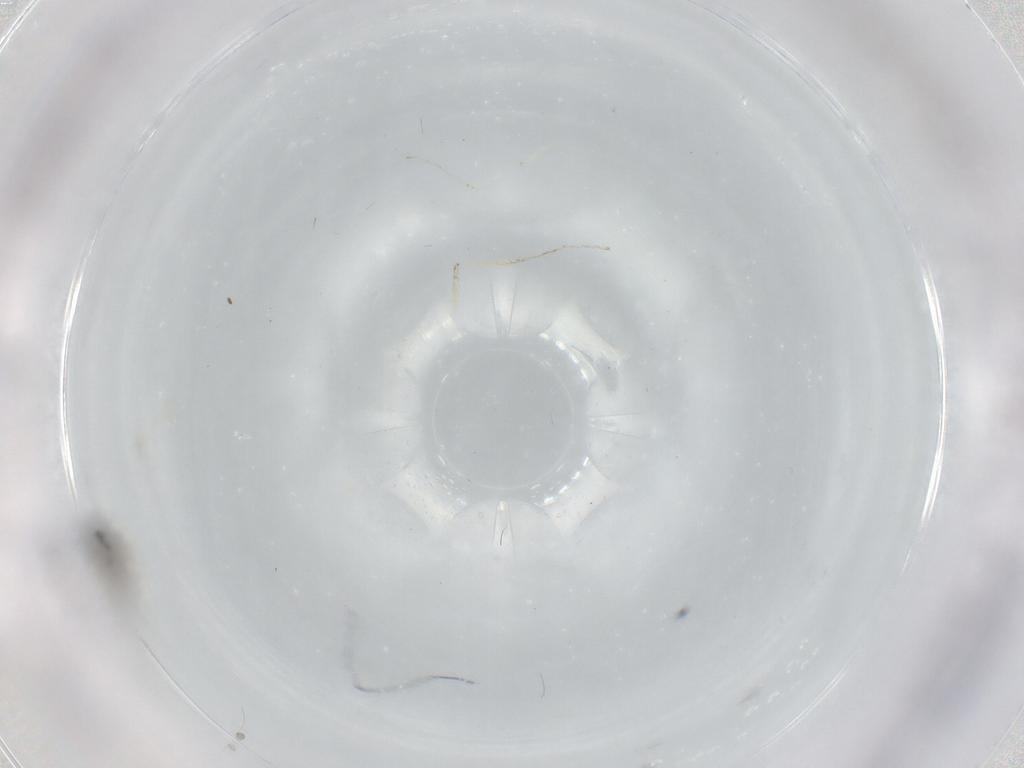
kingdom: Animalia
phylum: Arthropoda
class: Insecta
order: Diptera
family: Cecidomyiidae
